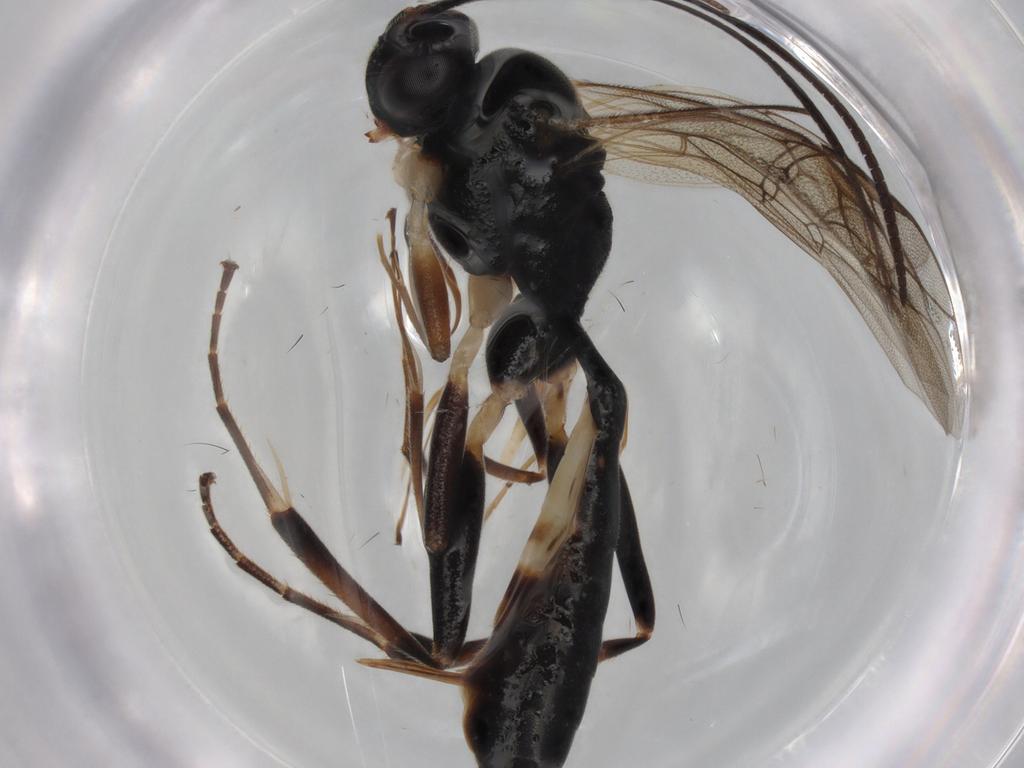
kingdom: Animalia
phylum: Arthropoda
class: Insecta
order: Hymenoptera
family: Ichneumonidae
